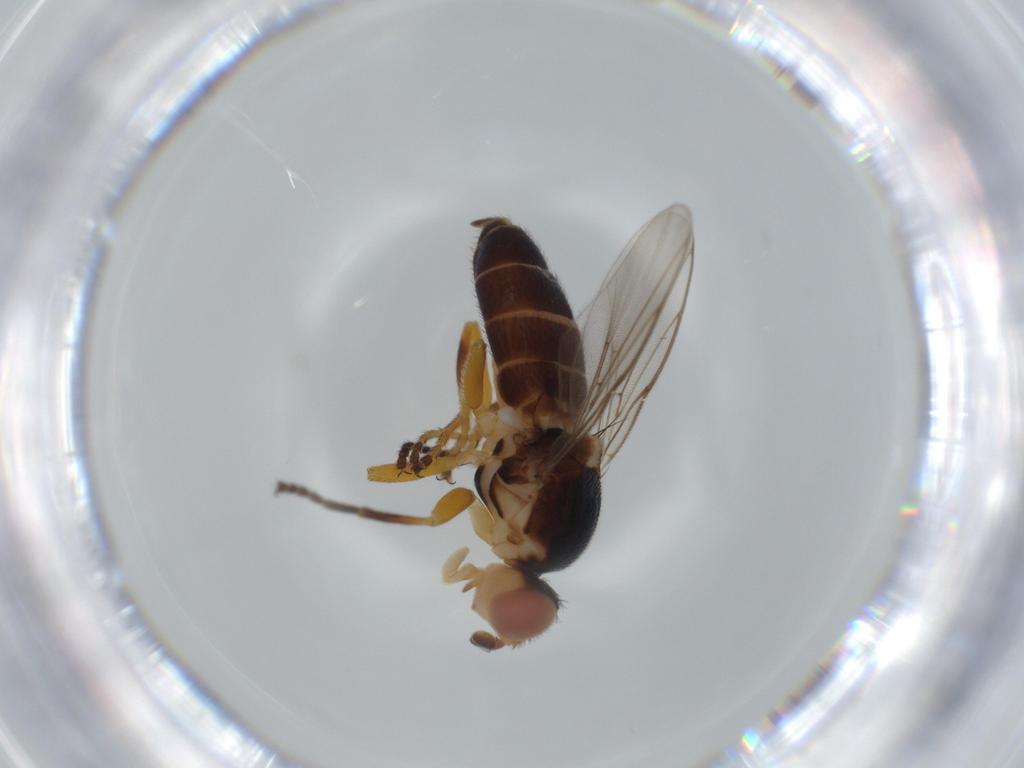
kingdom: Animalia
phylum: Arthropoda
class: Insecta
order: Diptera
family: Chloropidae
